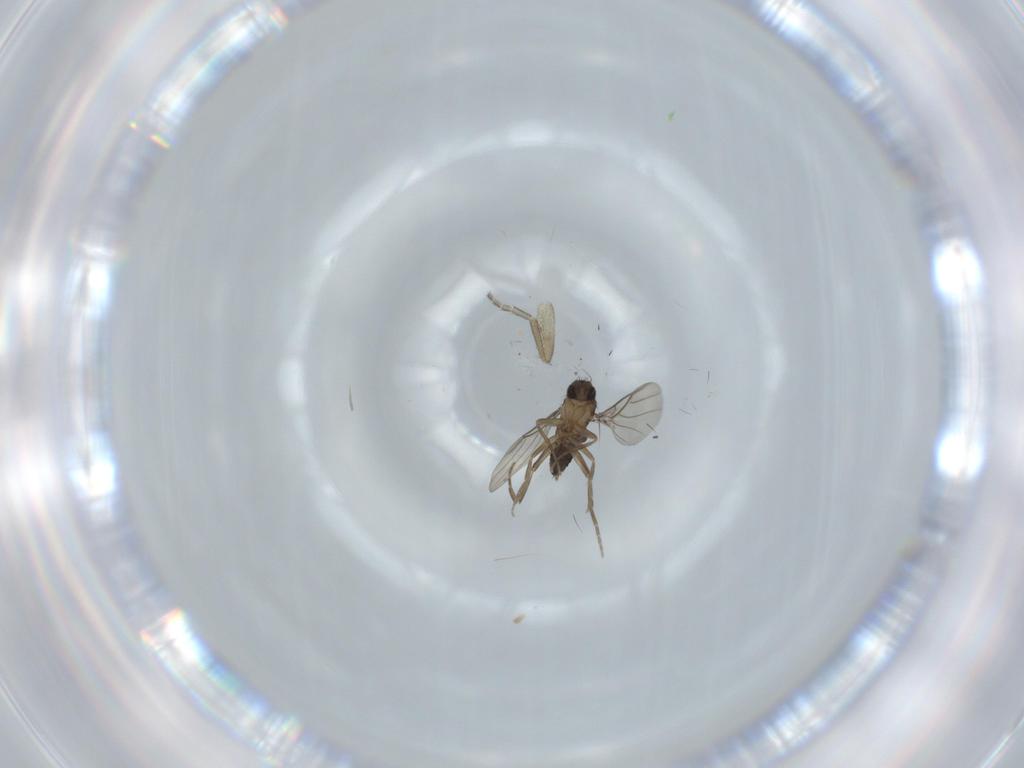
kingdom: Animalia
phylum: Arthropoda
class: Insecta
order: Diptera
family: Phoridae
